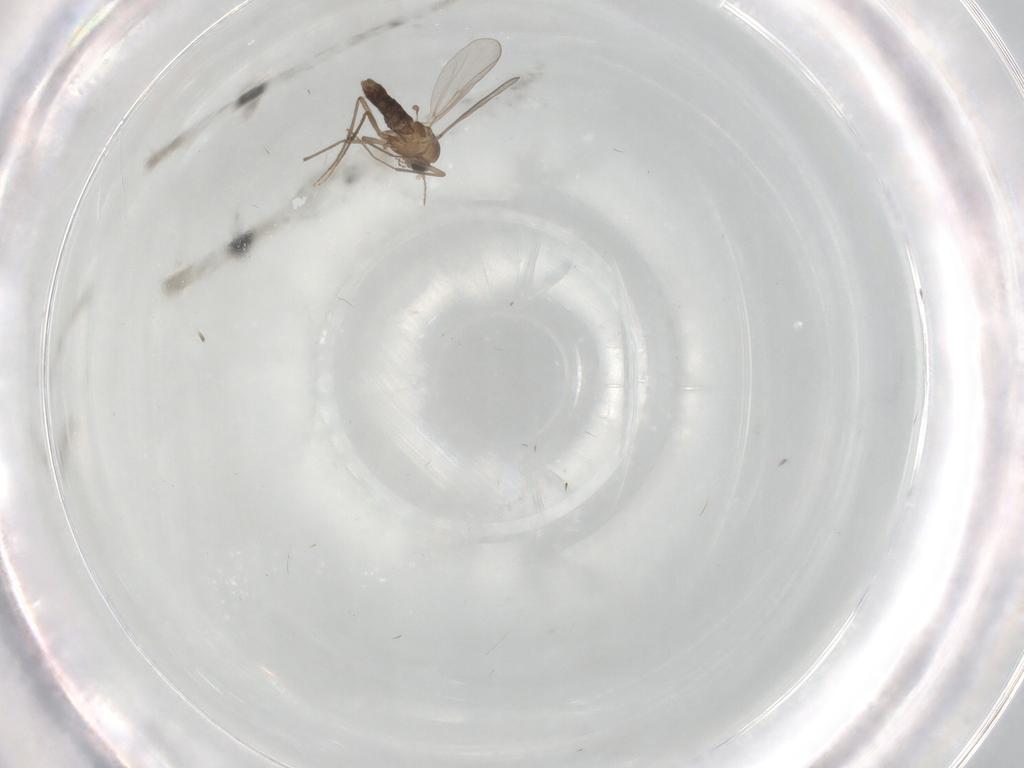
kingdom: Animalia
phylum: Arthropoda
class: Insecta
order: Diptera
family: Chironomidae
